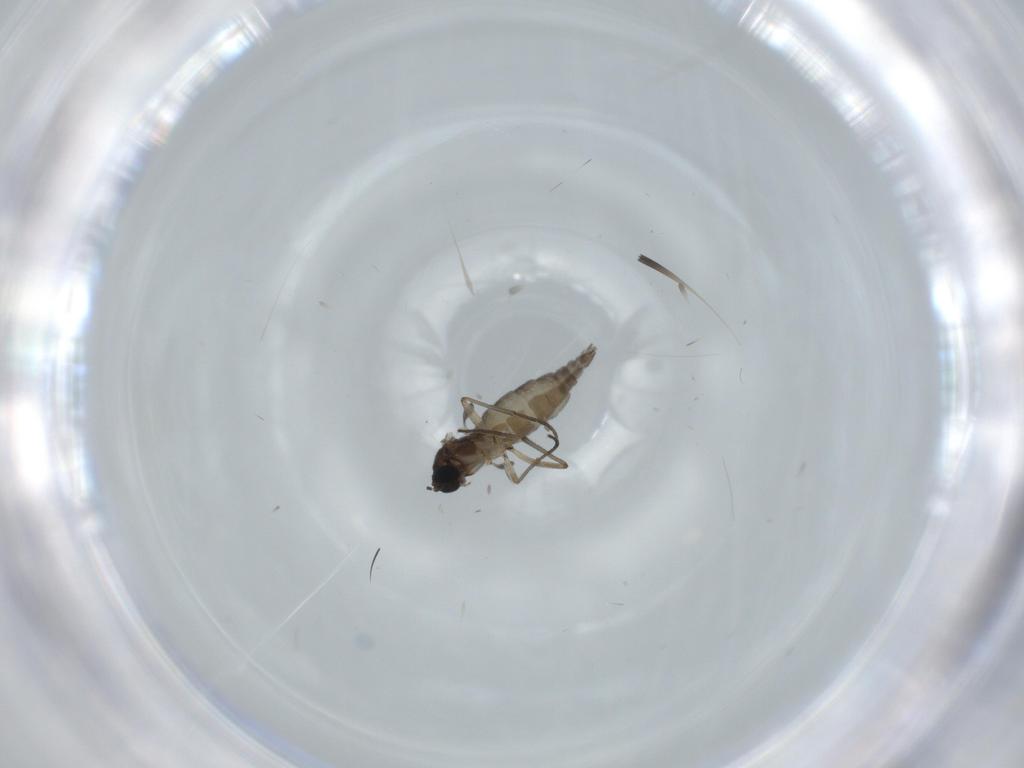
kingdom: Animalia
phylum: Arthropoda
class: Insecta
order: Diptera
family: Sciaridae
